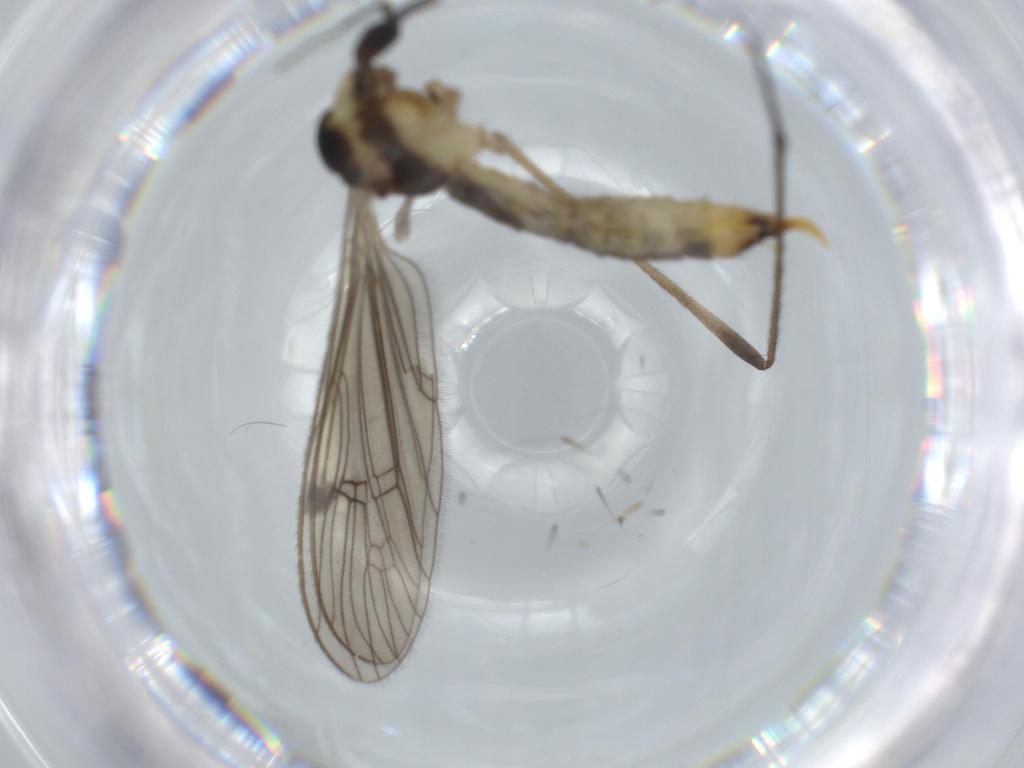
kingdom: Animalia
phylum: Arthropoda
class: Insecta
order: Diptera
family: Limoniidae
